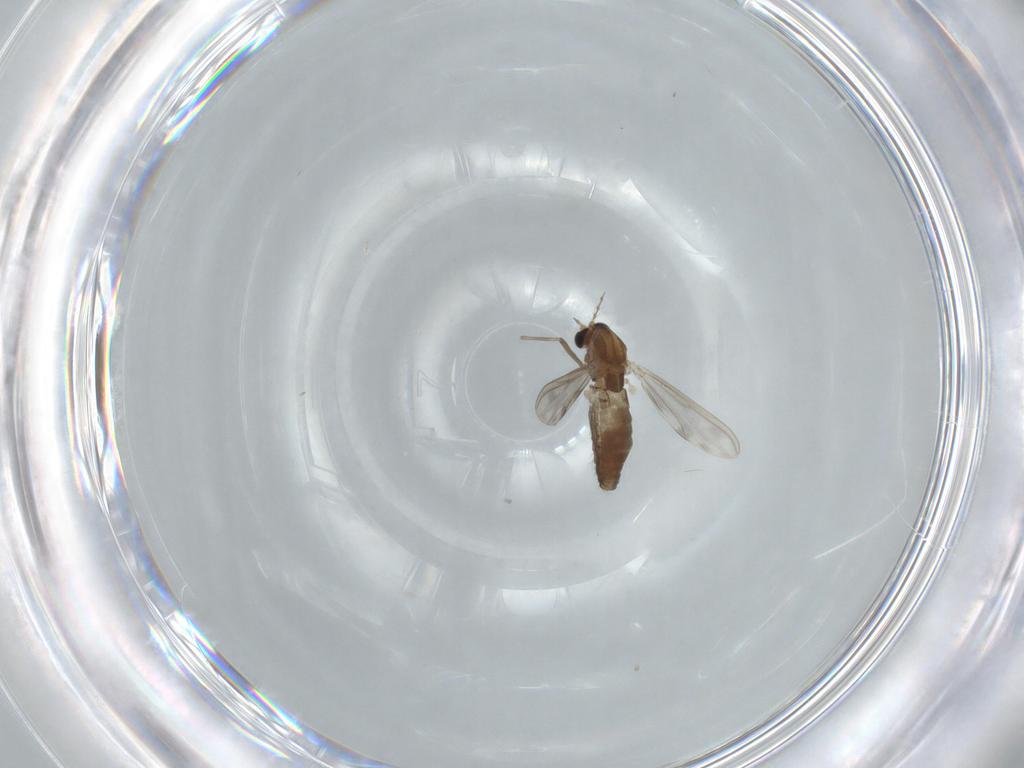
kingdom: Animalia
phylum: Arthropoda
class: Insecta
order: Diptera
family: Chironomidae
